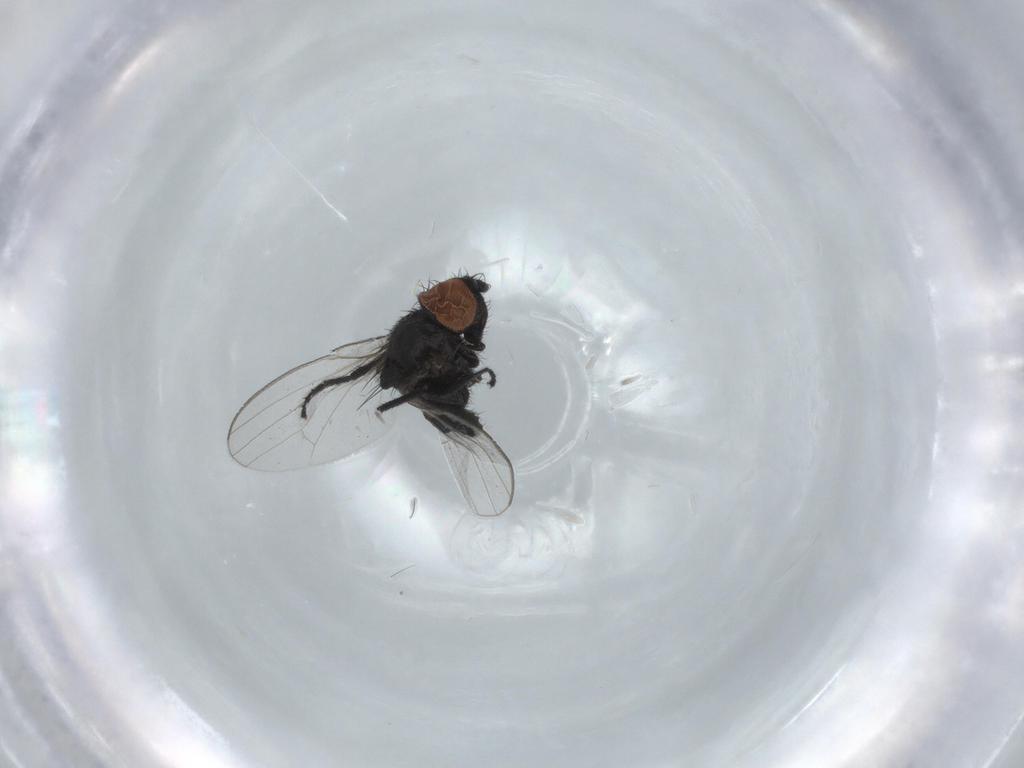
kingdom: Animalia
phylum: Arthropoda
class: Insecta
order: Diptera
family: Milichiidae
